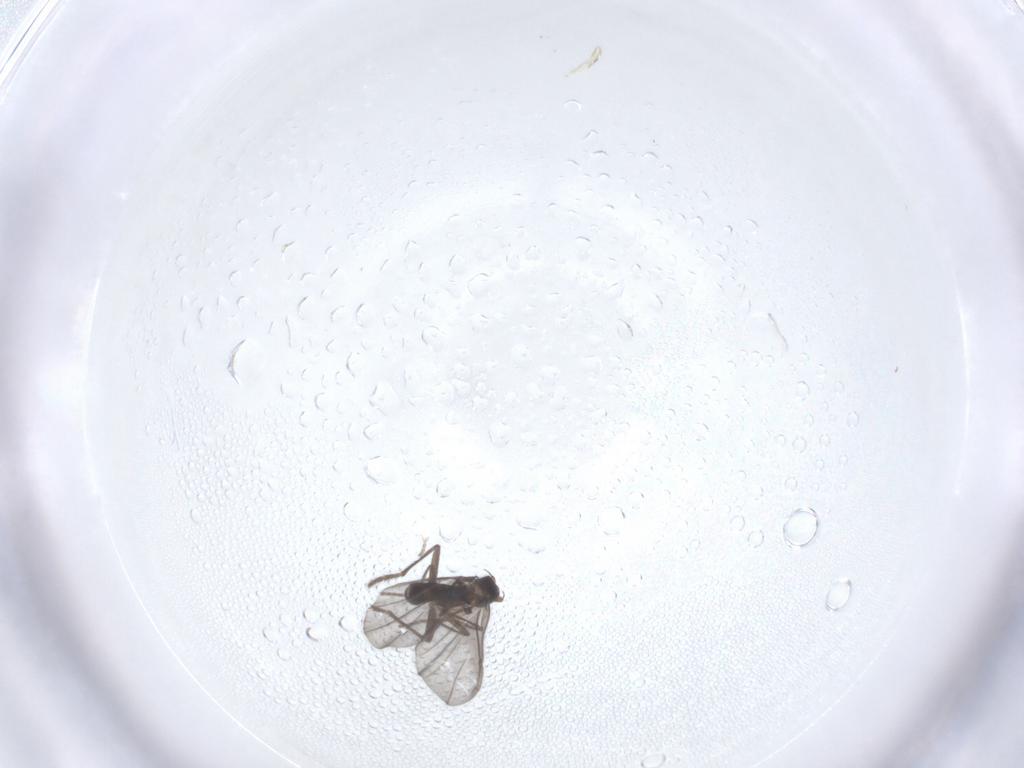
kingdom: Animalia
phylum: Arthropoda
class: Insecta
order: Diptera
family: Phoridae
